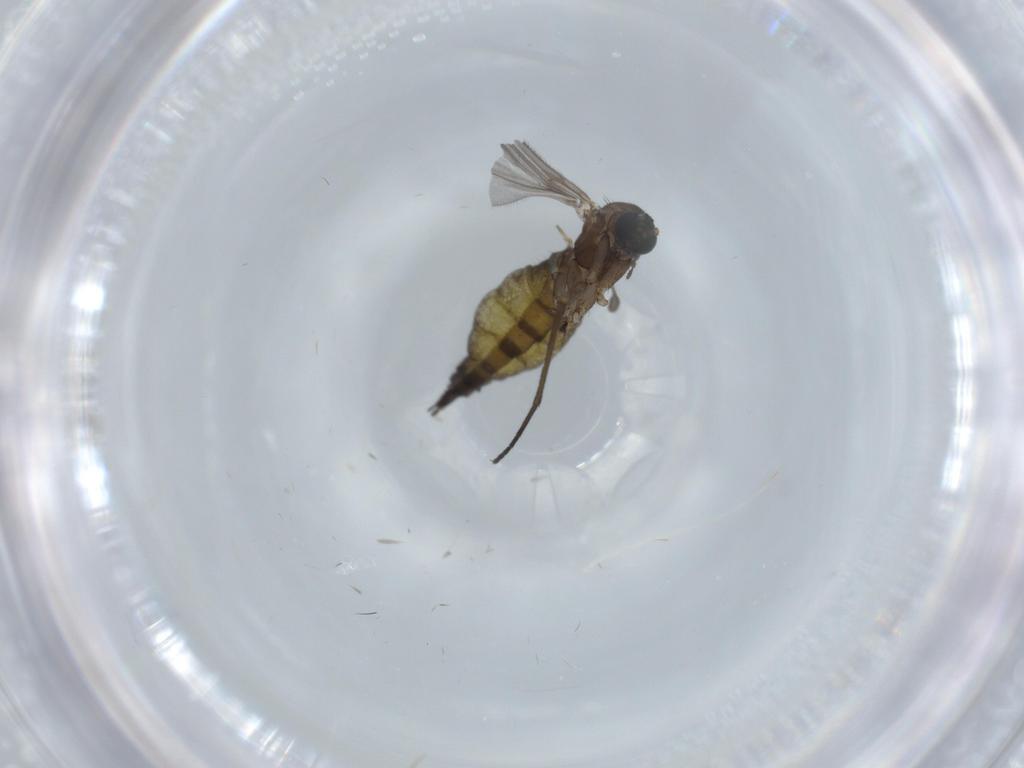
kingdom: Animalia
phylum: Arthropoda
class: Insecta
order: Diptera
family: Sciaridae
